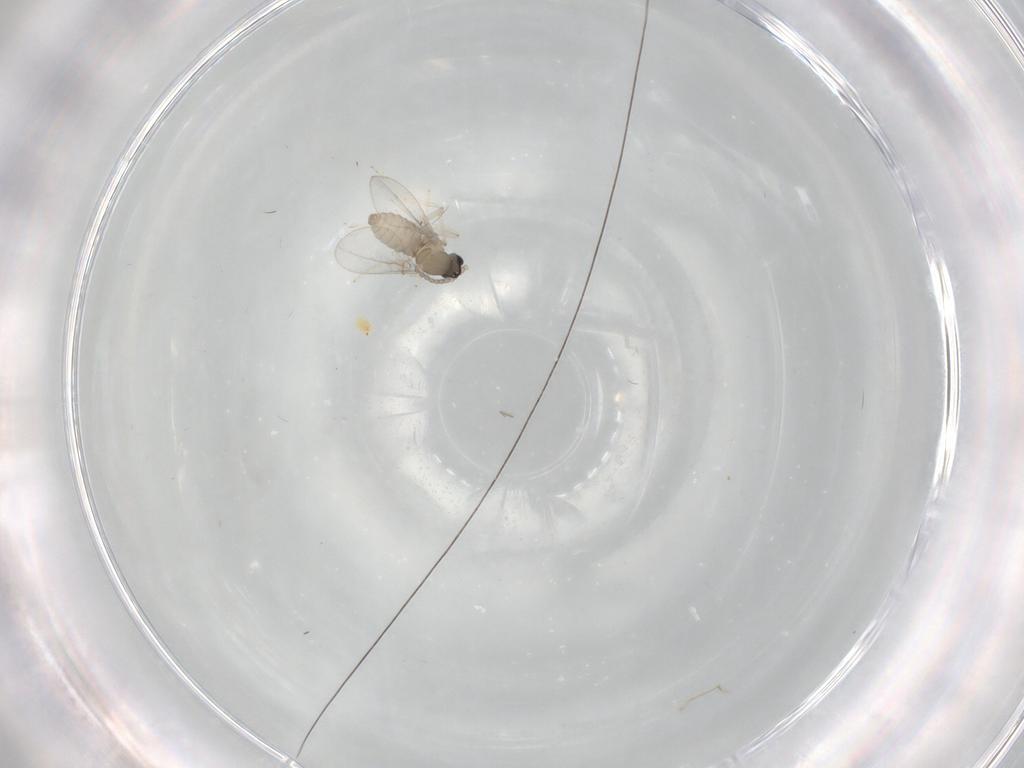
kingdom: Animalia
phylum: Arthropoda
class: Insecta
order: Diptera
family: Cecidomyiidae
